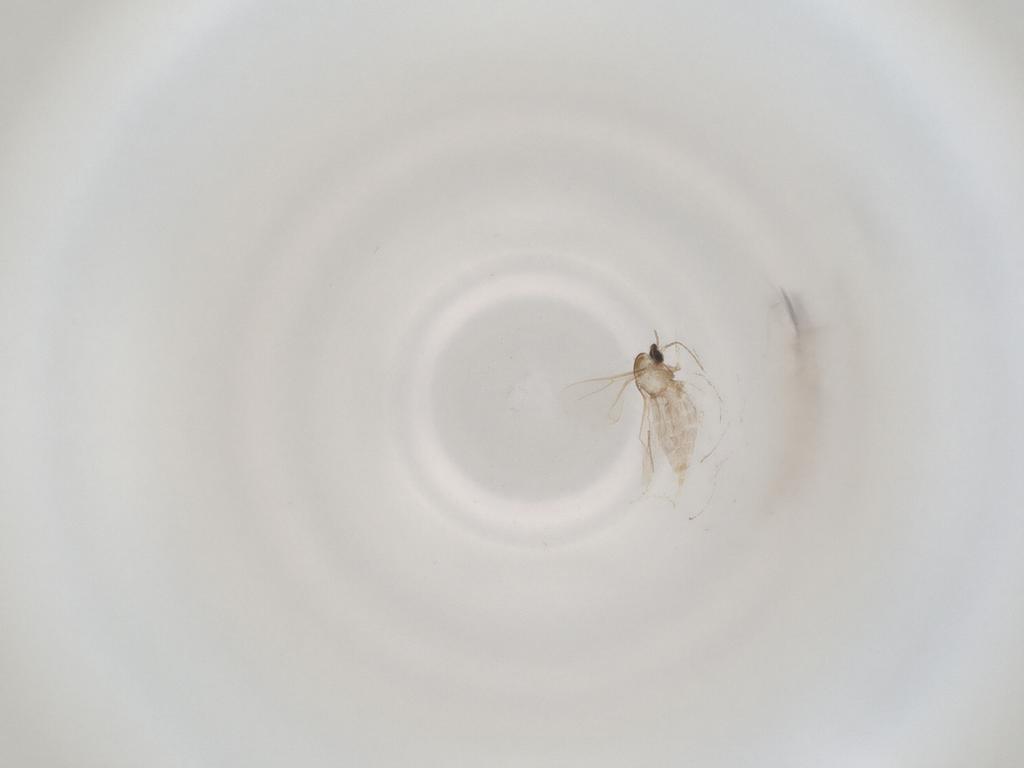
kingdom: Animalia
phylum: Arthropoda
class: Insecta
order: Diptera
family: Cecidomyiidae
